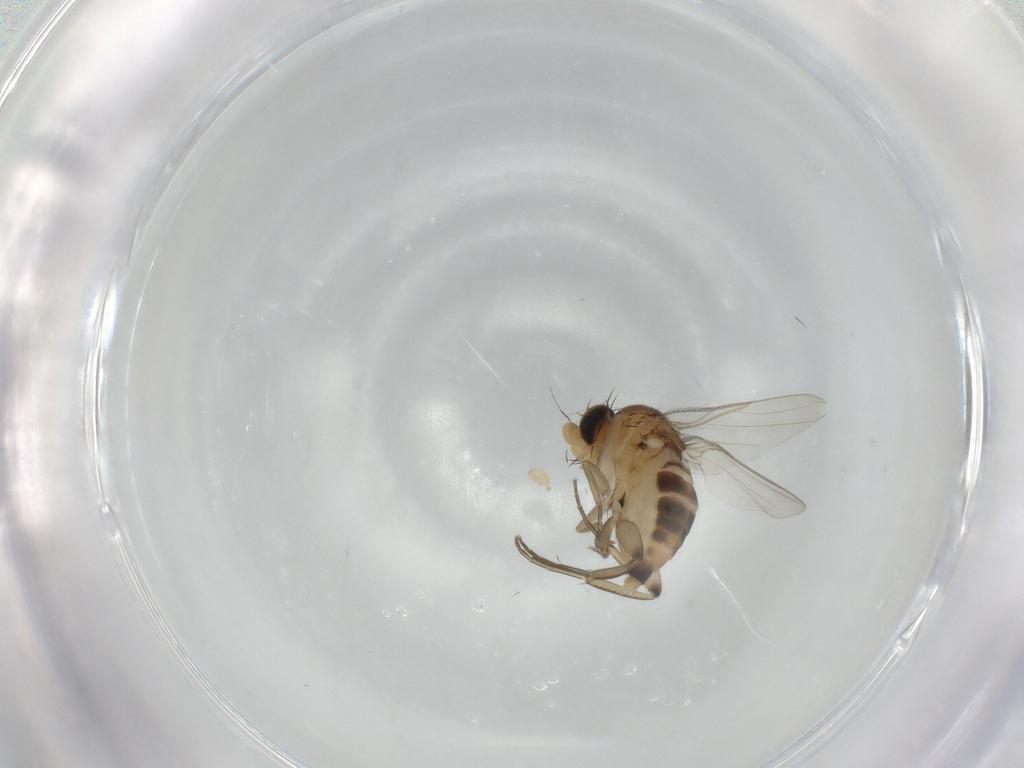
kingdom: Animalia
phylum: Arthropoda
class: Insecta
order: Diptera
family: Phoridae
